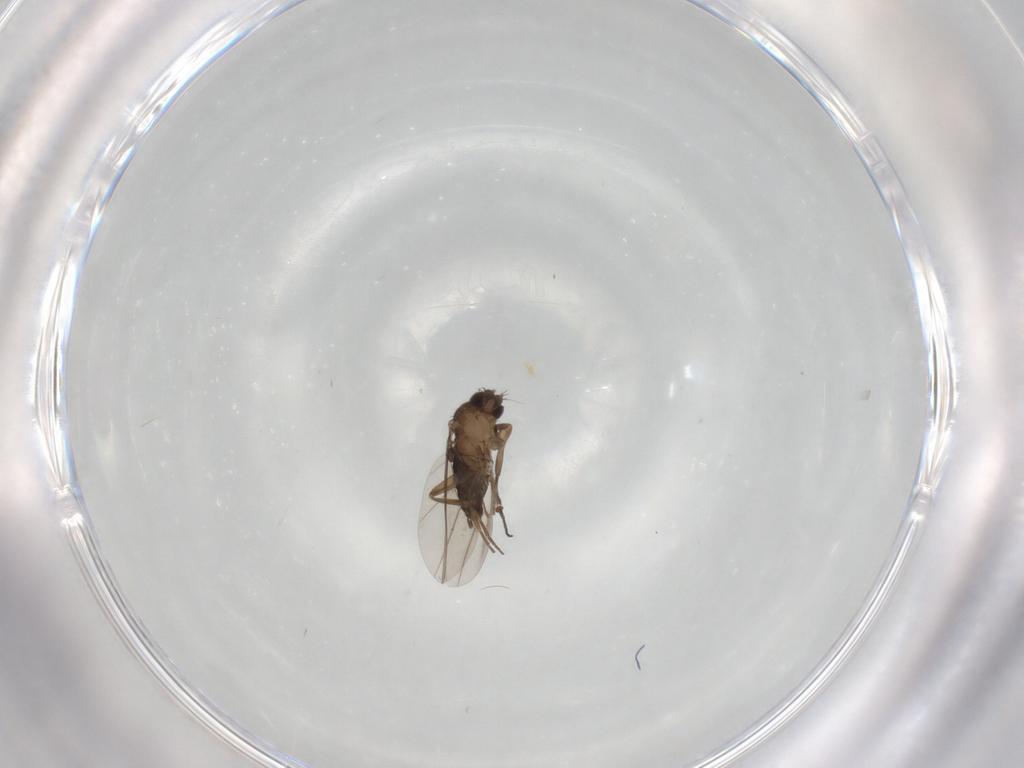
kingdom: Animalia
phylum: Arthropoda
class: Insecta
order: Diptera
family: Phoridae
